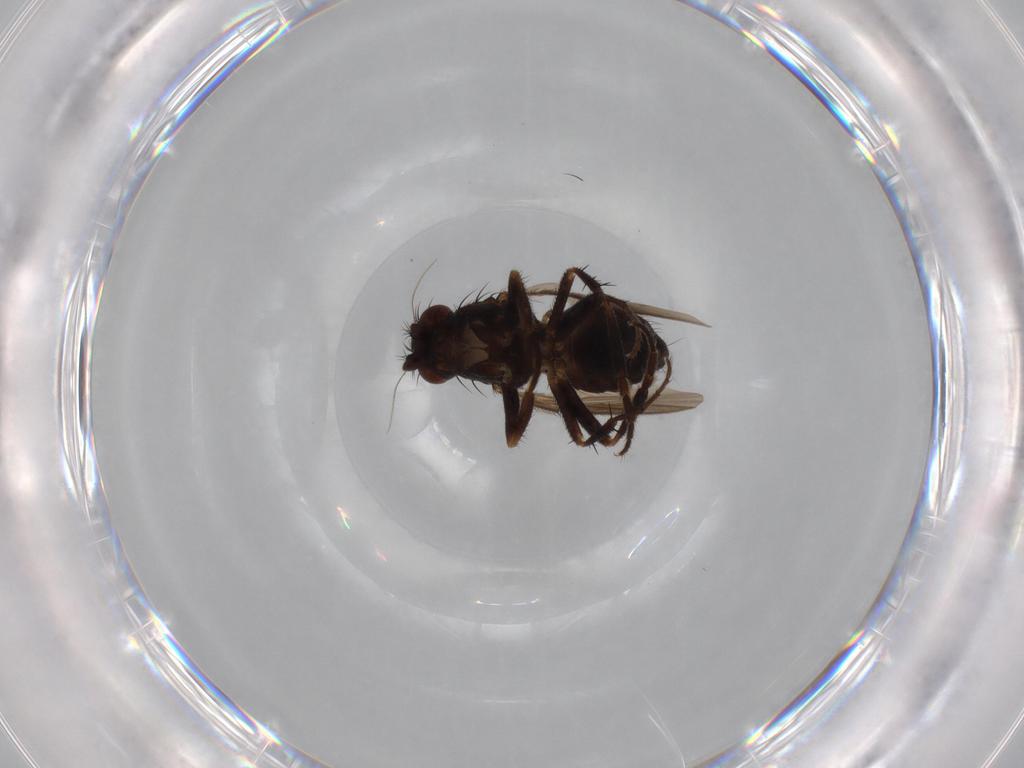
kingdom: Animalia
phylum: Arthropoda
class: Insecta
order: Diptera
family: Sphaeroceridae
